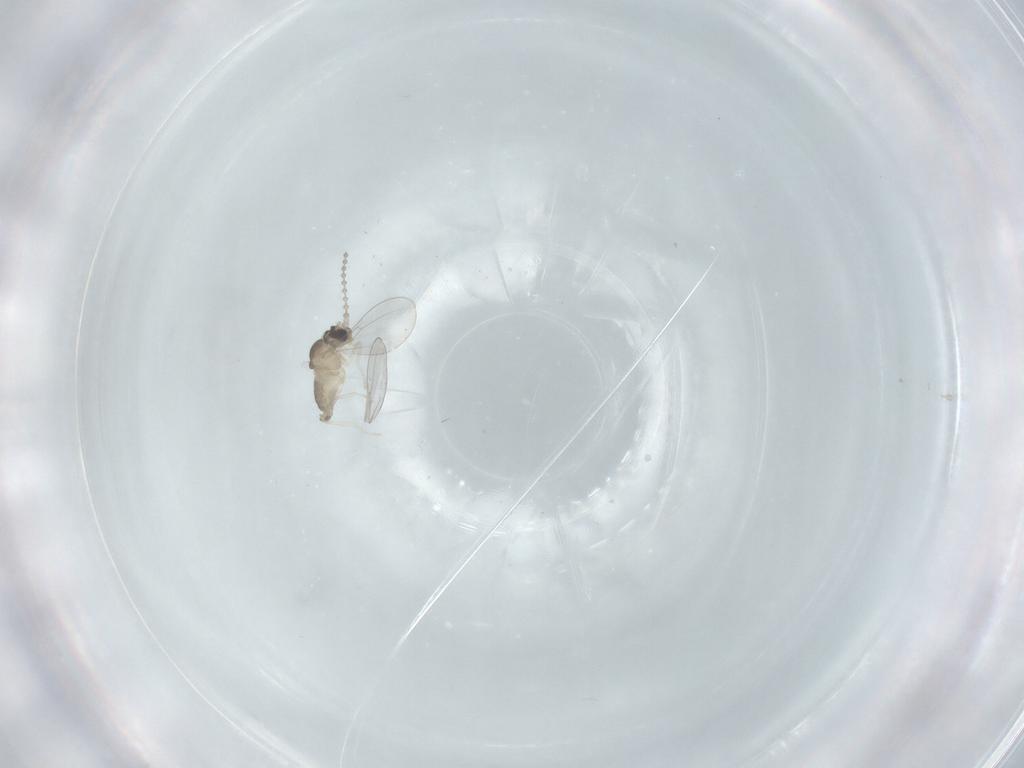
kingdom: Animalia
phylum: Arthropoda
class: Insecta
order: Diptera
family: Cecidomyiidae
